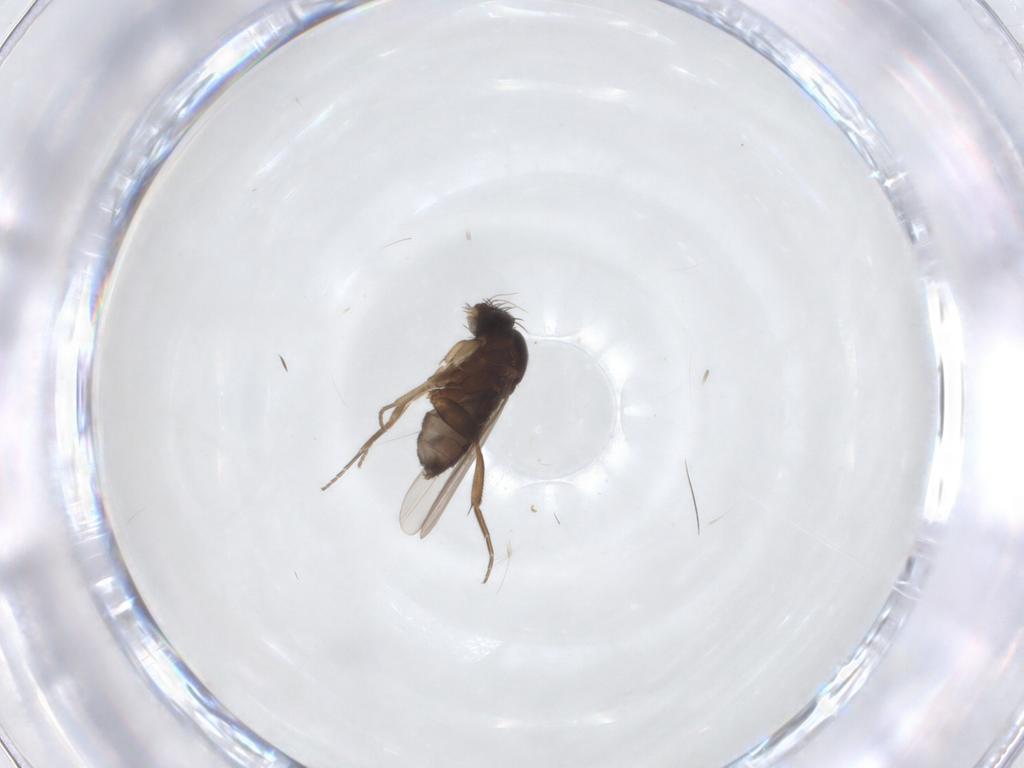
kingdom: Animalia
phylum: Arthropoda
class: Insecta
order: Diptera
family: Phoridae
